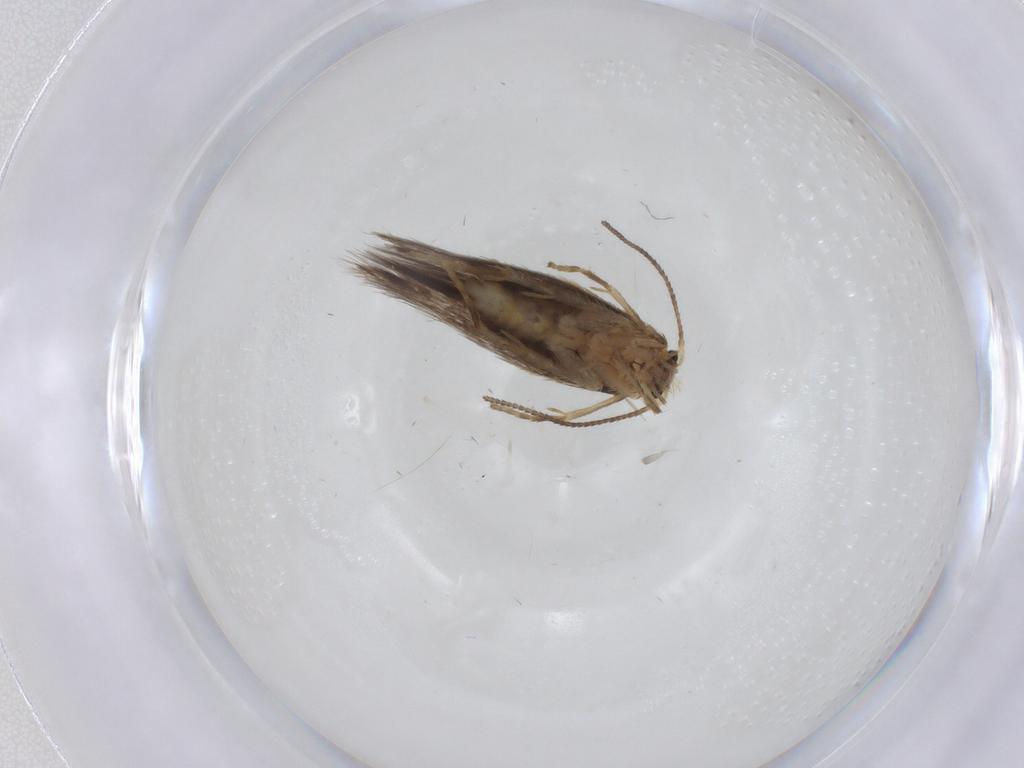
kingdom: Animalia
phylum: Arthropoda
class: Insecta
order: Lepidoptera
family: Nepticulidae
